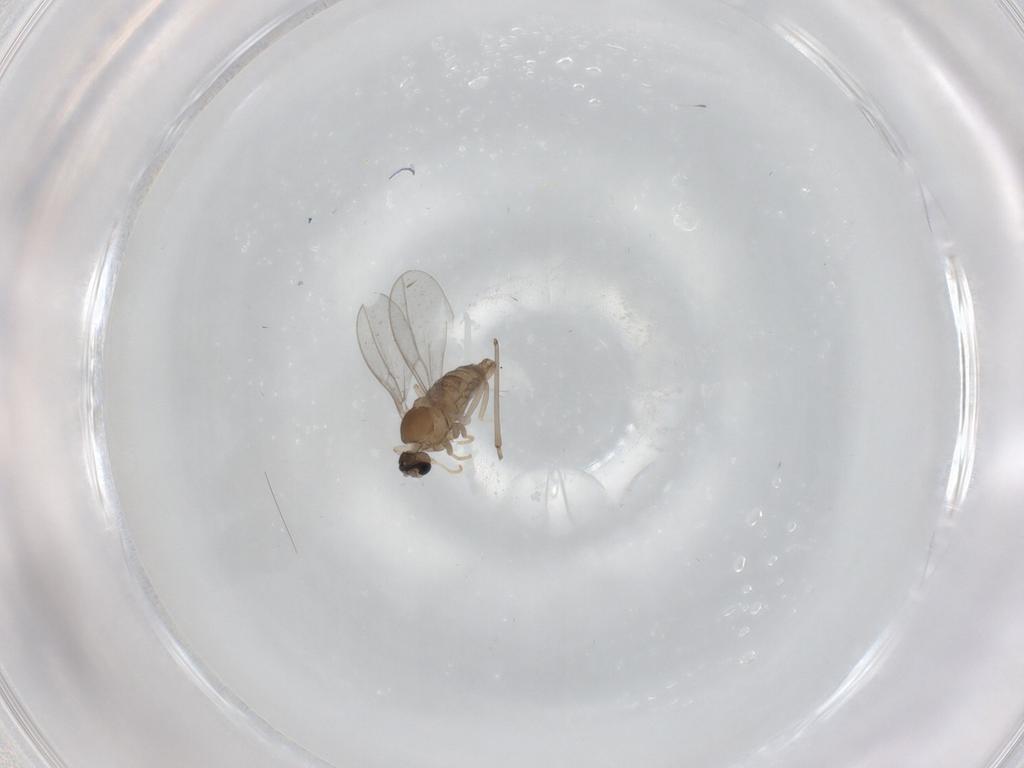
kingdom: Animalia
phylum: Arthropoda
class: Insecta
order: Diptera
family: Cecidomyiidae
